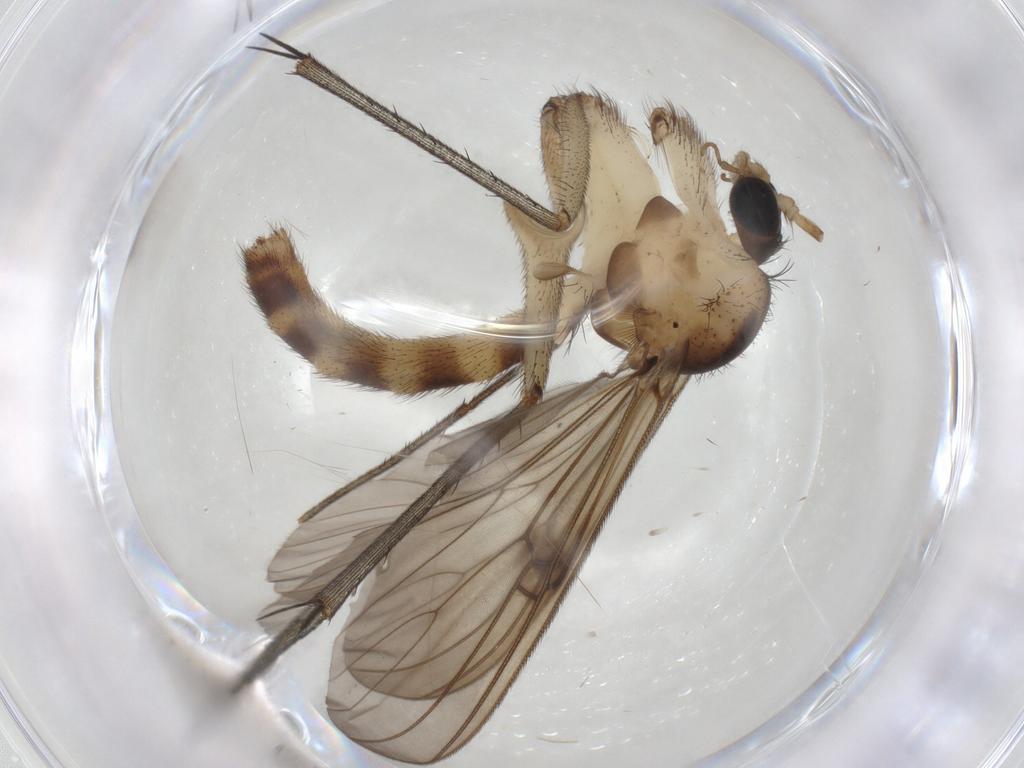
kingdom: Animalia
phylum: Arthropoda
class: Insecta
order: Diptera
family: Mycetophilidae
